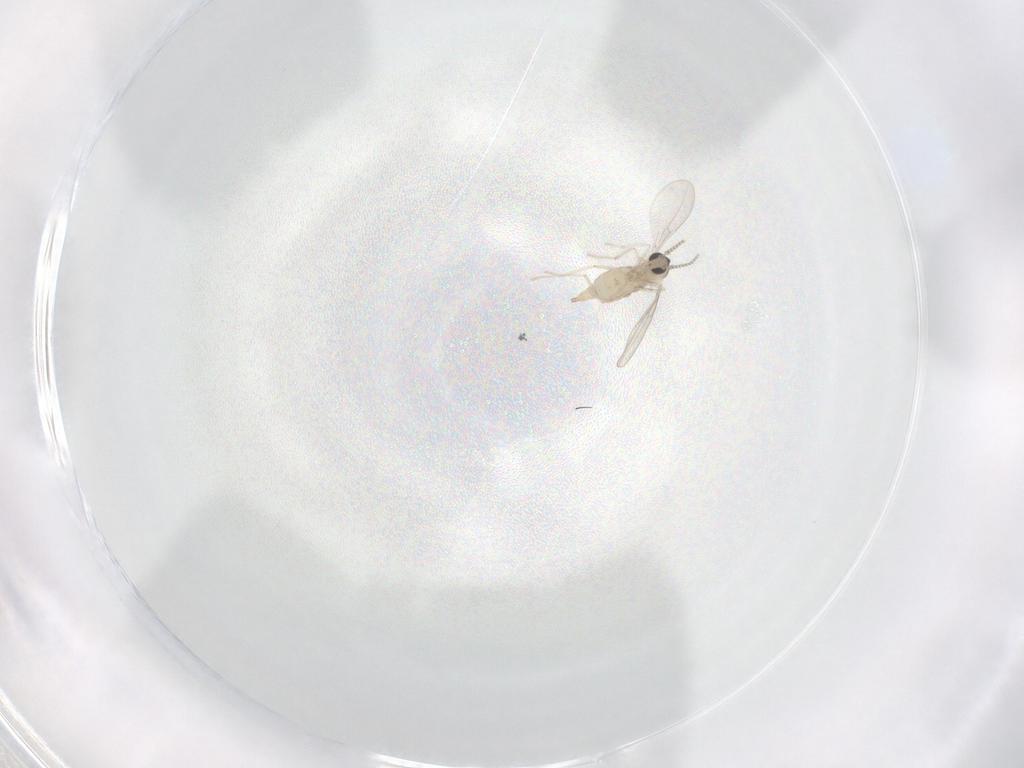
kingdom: Animalia
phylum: Arthropoda
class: Insecta
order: Diptera
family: Cecidomyiidae
